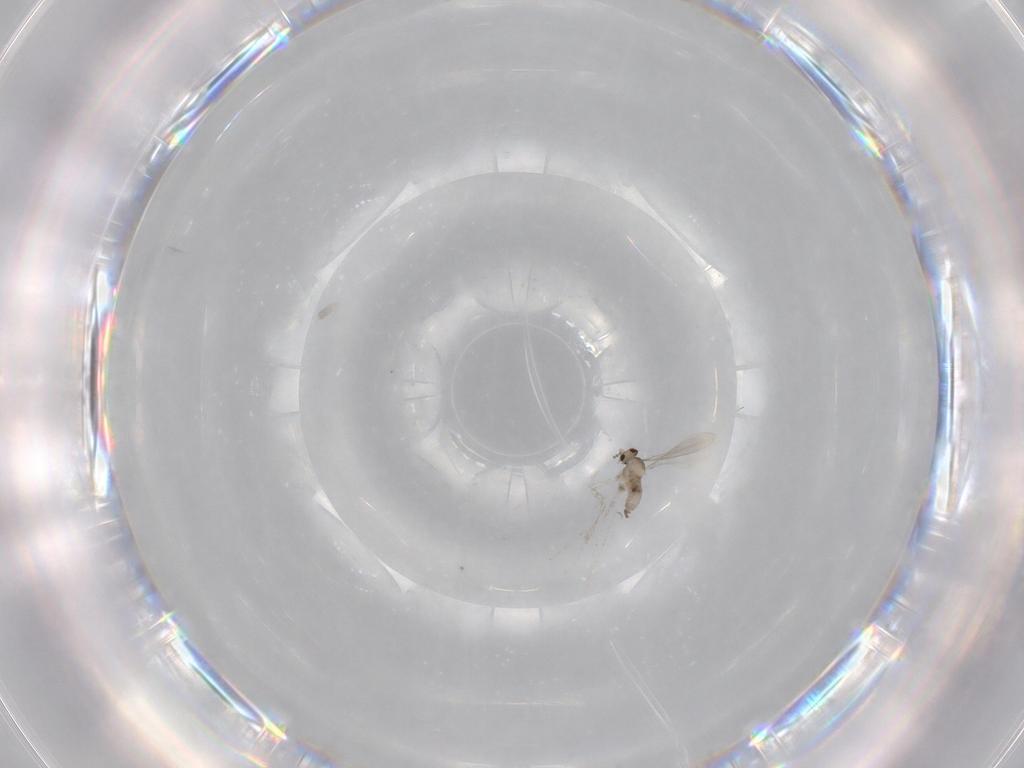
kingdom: Animalia
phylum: Arthropoda
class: Insecta
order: Diptera
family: Cecidomyiidae
